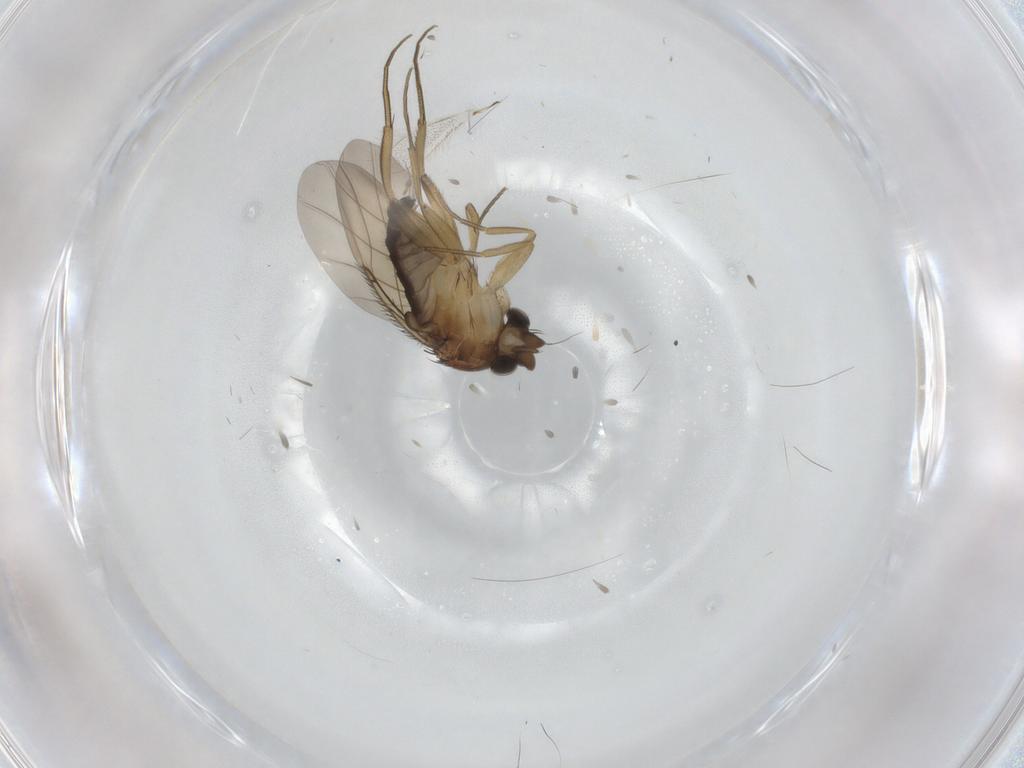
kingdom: Animalia
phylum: Arthropoda
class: Insecta
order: Diptera
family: Phoridae
